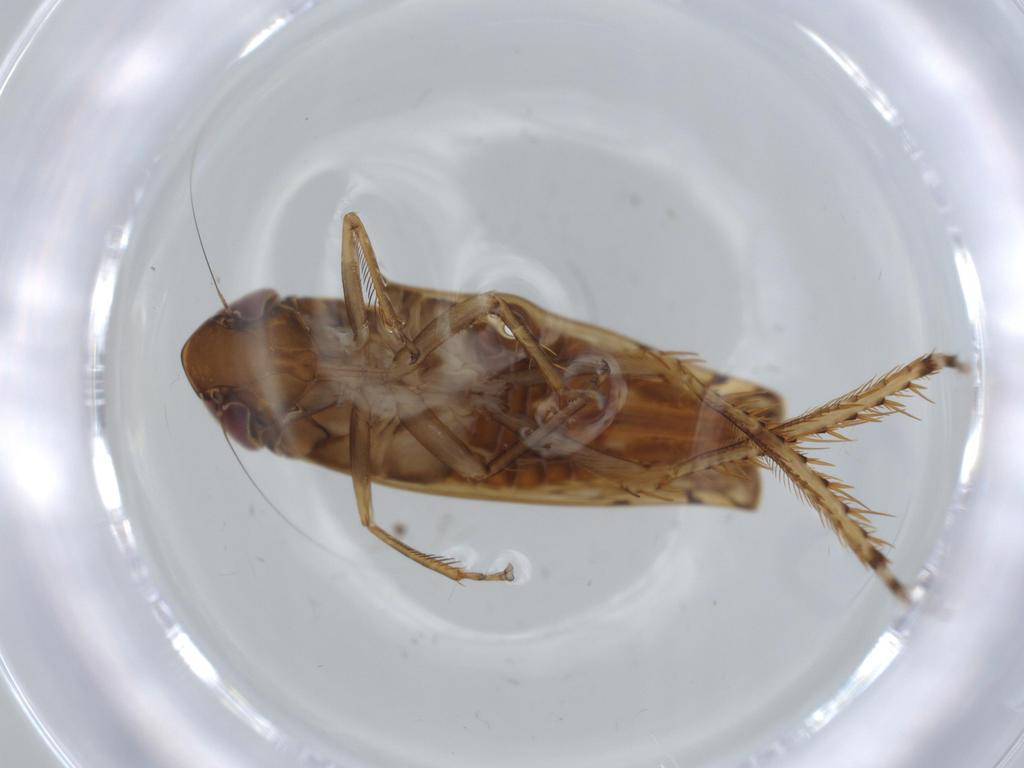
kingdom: Animalia
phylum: Arthropoda
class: Insecta
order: Hemiptera
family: Cicadellidae
